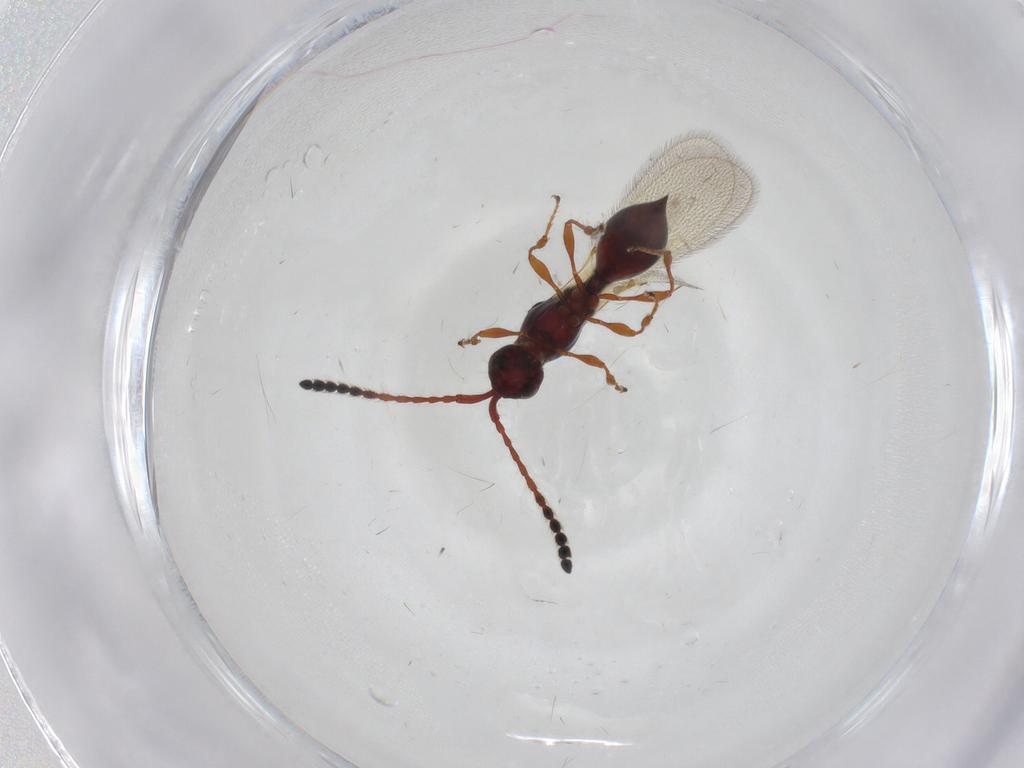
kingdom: Animalia
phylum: Arthropoda
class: Insecta
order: Hymenoptera
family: Diapriidae
